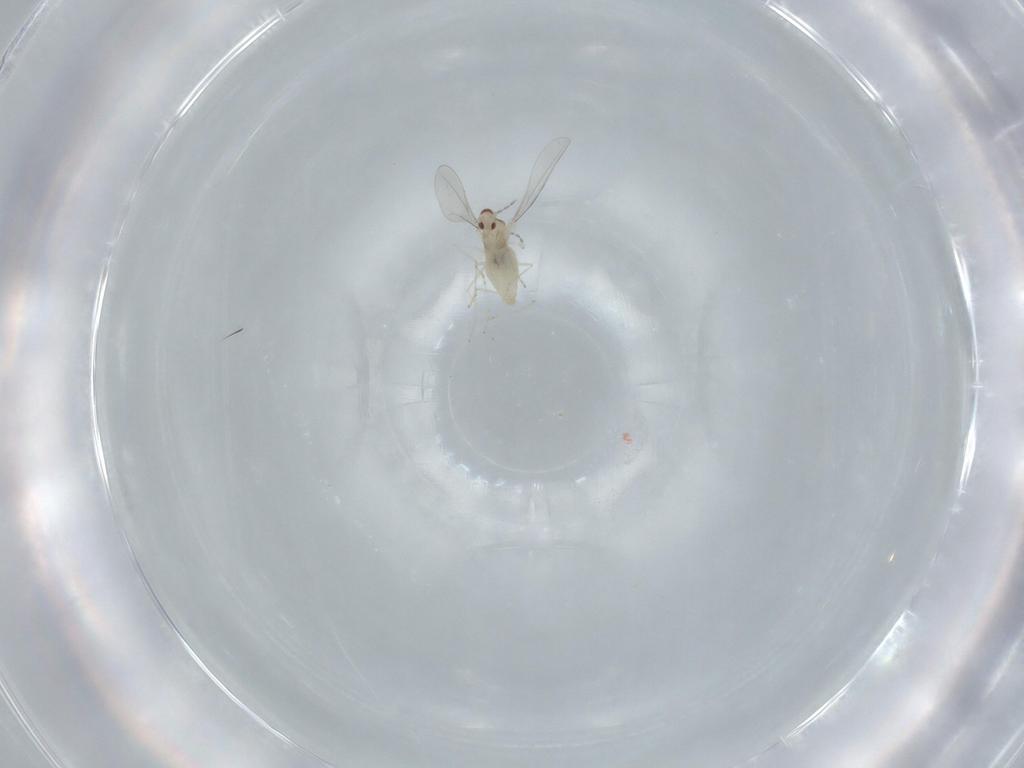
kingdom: Animalia
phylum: Arthropoda
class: Insecta
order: Diptera
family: Cecidomyiidae
